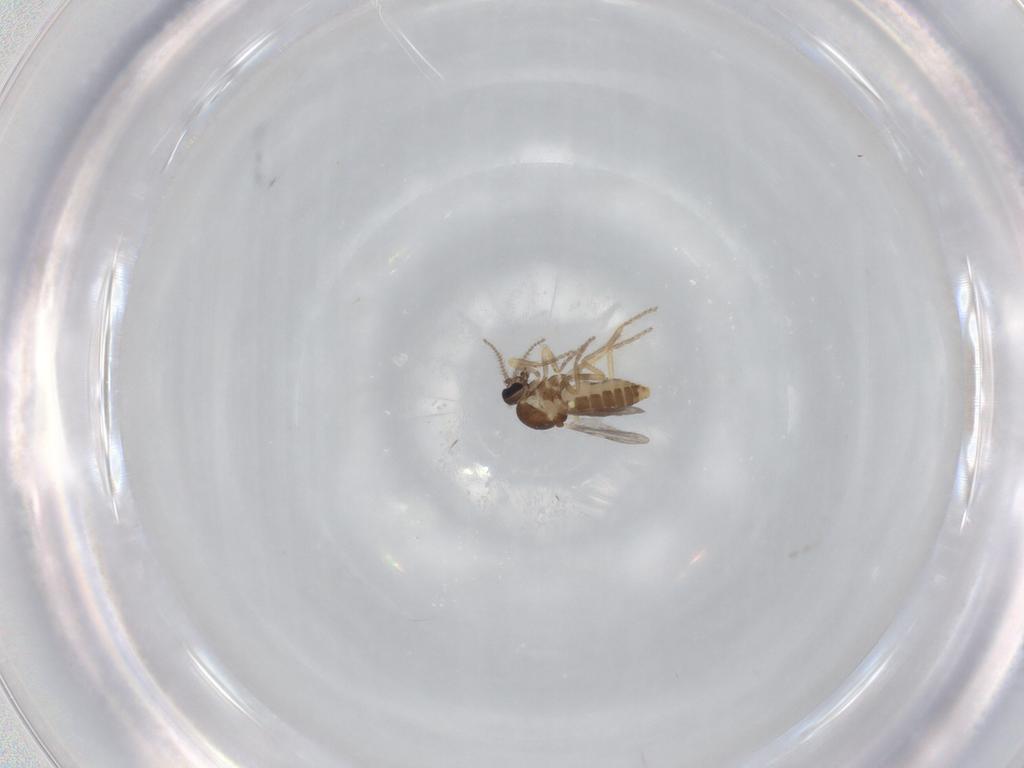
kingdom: Animalia
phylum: Arthropoda
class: Insecta
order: Diptera
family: Ceratopogonidae
